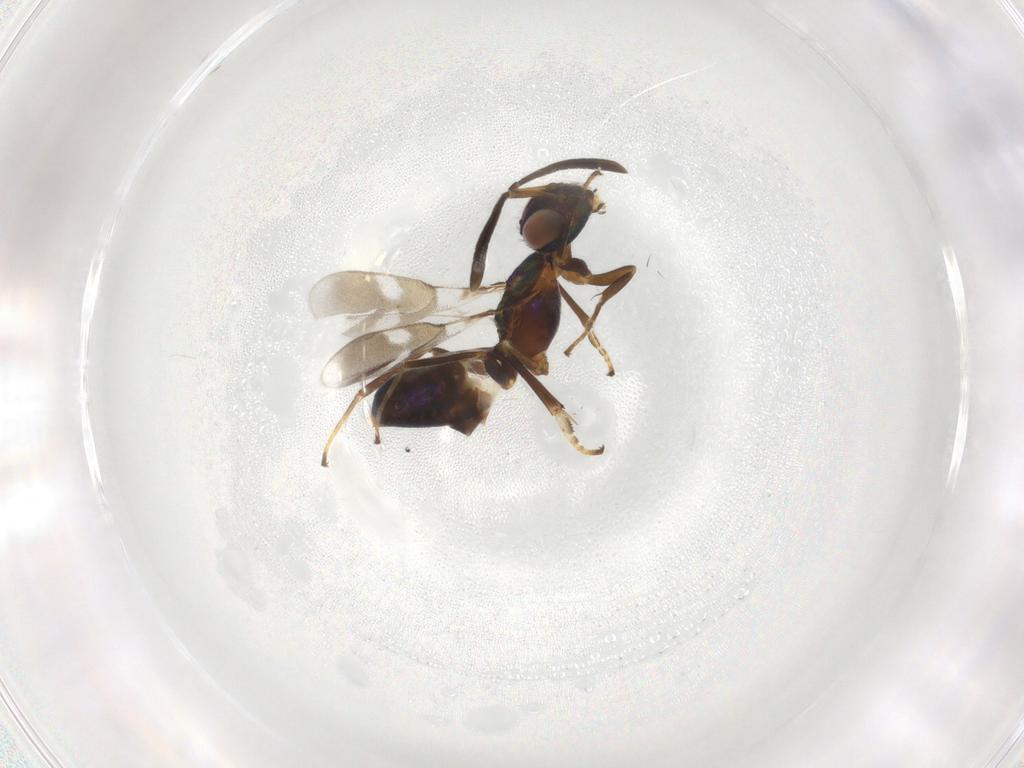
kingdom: Animalia
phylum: Arthropoda
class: Insecta
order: Hymenoptera
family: Eupelmidae
